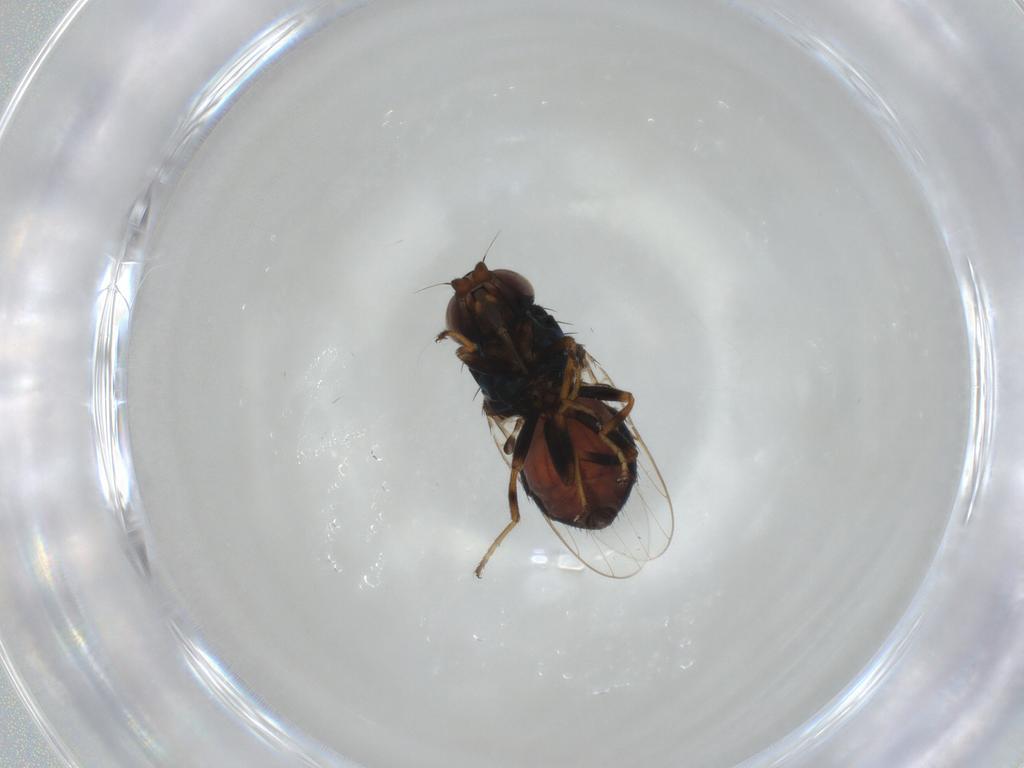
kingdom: Animalia
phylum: Arthropoda
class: Insecta
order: Diptera
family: Chloropidae
